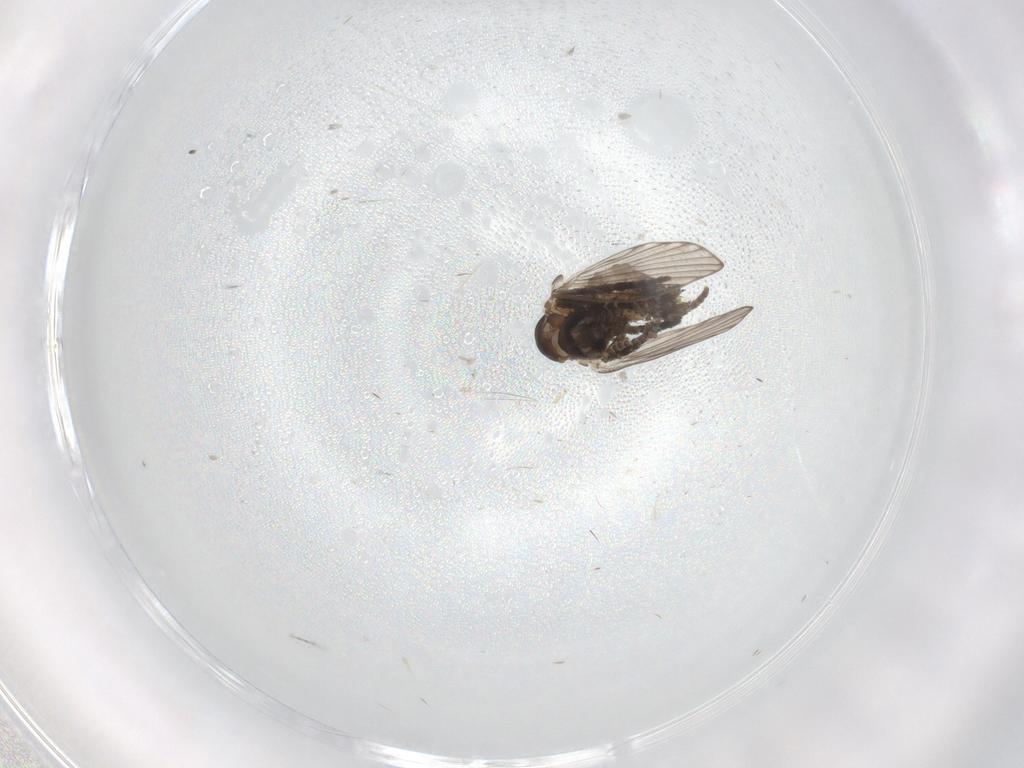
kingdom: Animalia
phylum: Arthropoda
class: Insecta
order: Diptera
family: Cecidomyiidae
